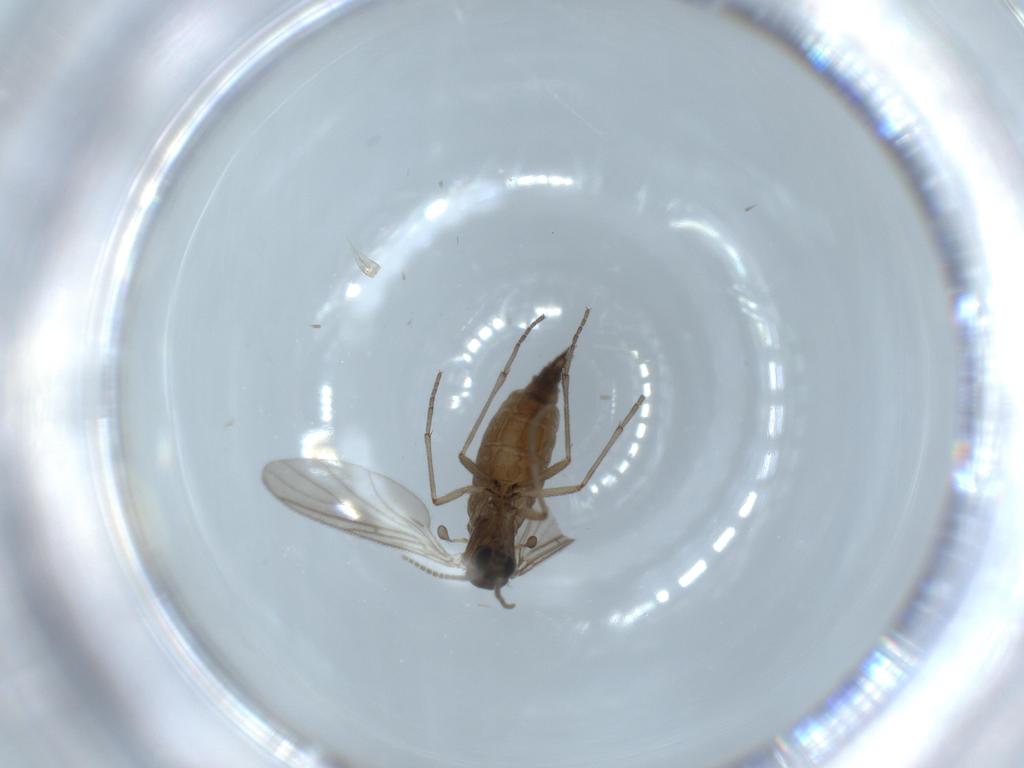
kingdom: Animalia
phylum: Arthropoda
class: Insecta
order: Diptera
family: Sciaridae
